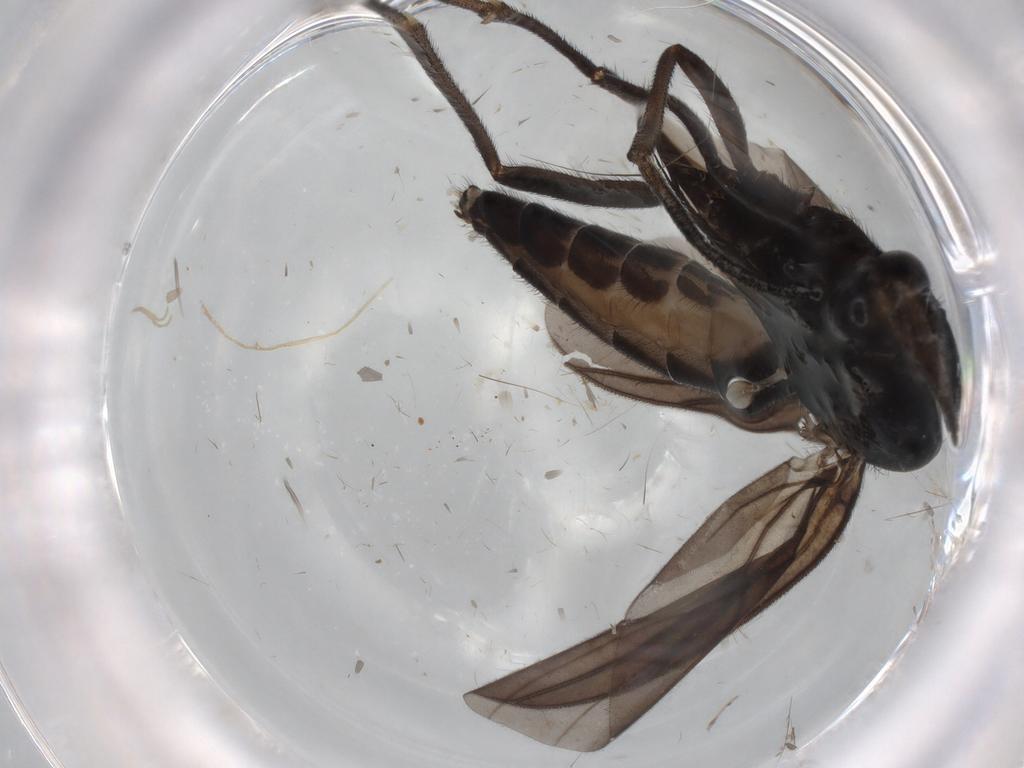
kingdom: Animalia
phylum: Arthropoda
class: Insecta
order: Diptera
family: Mycetophilidae
